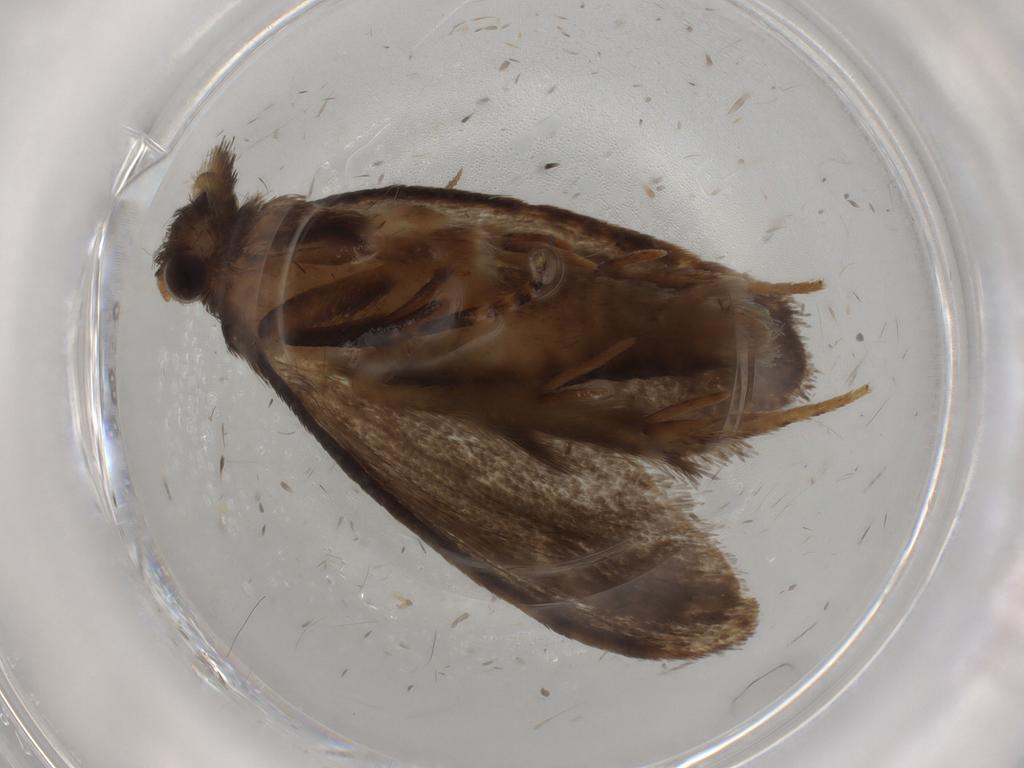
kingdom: Animalia
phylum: Arthropoda
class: Insecta
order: Lepidoptera
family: Tineidae
